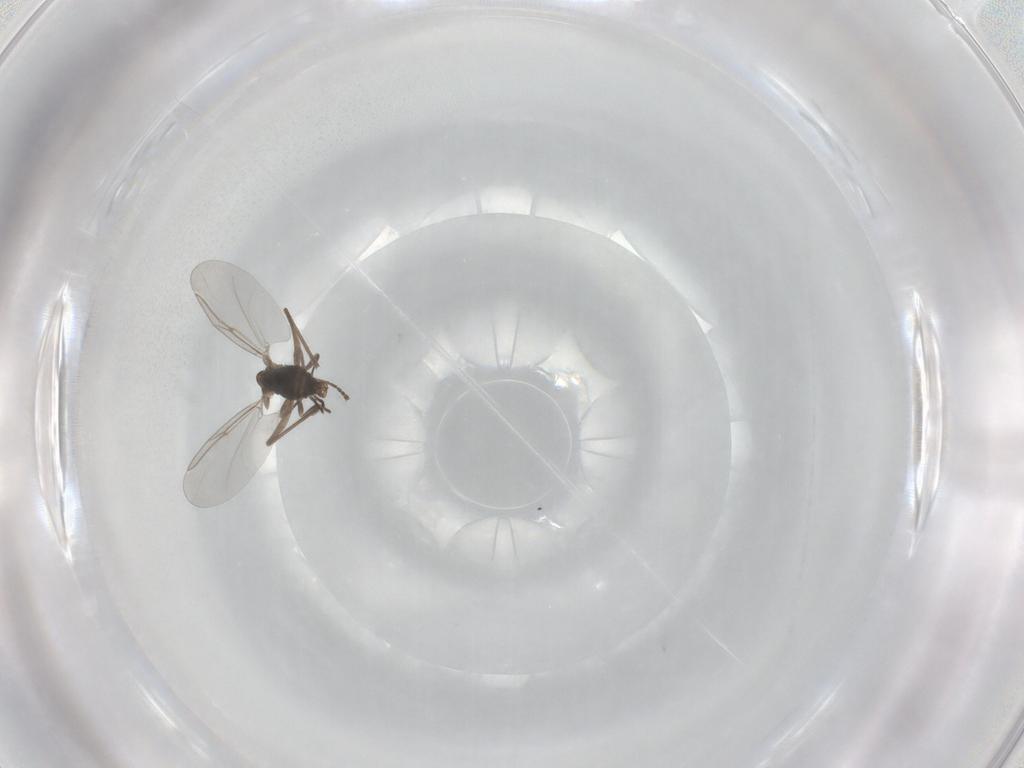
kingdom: Animalia
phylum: Arthropoda
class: Insecta
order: Diptera
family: Cecidomyiidae
